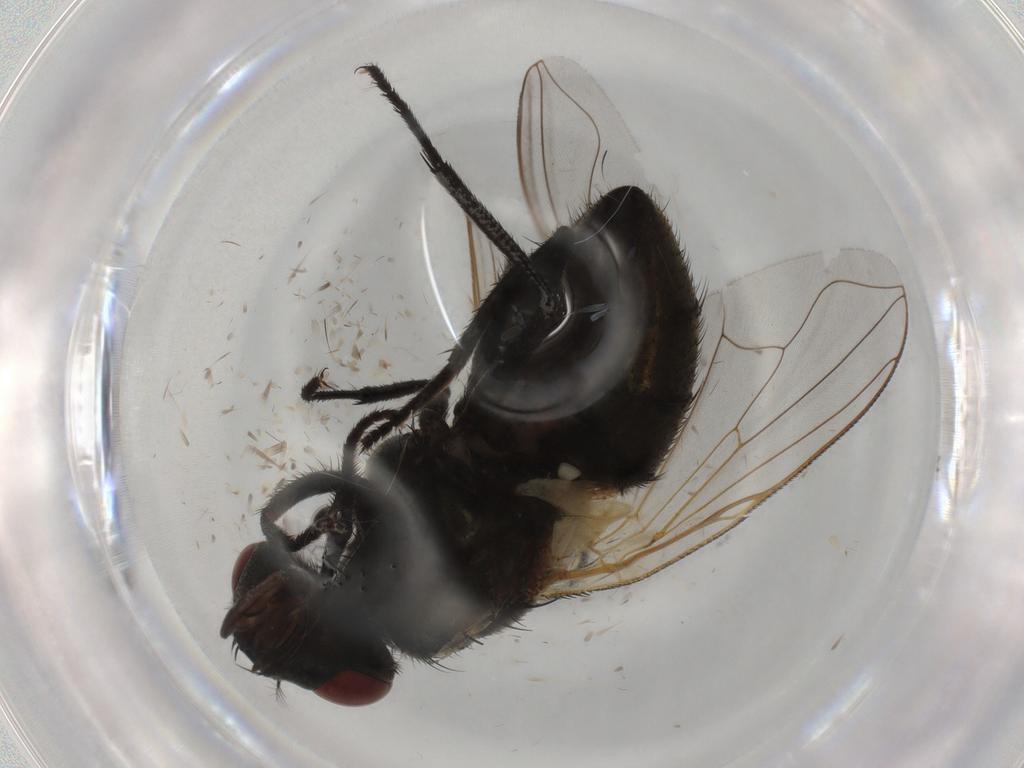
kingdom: Animalia
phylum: Arthropoda
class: Insecta
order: Diptera
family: Muscidae
